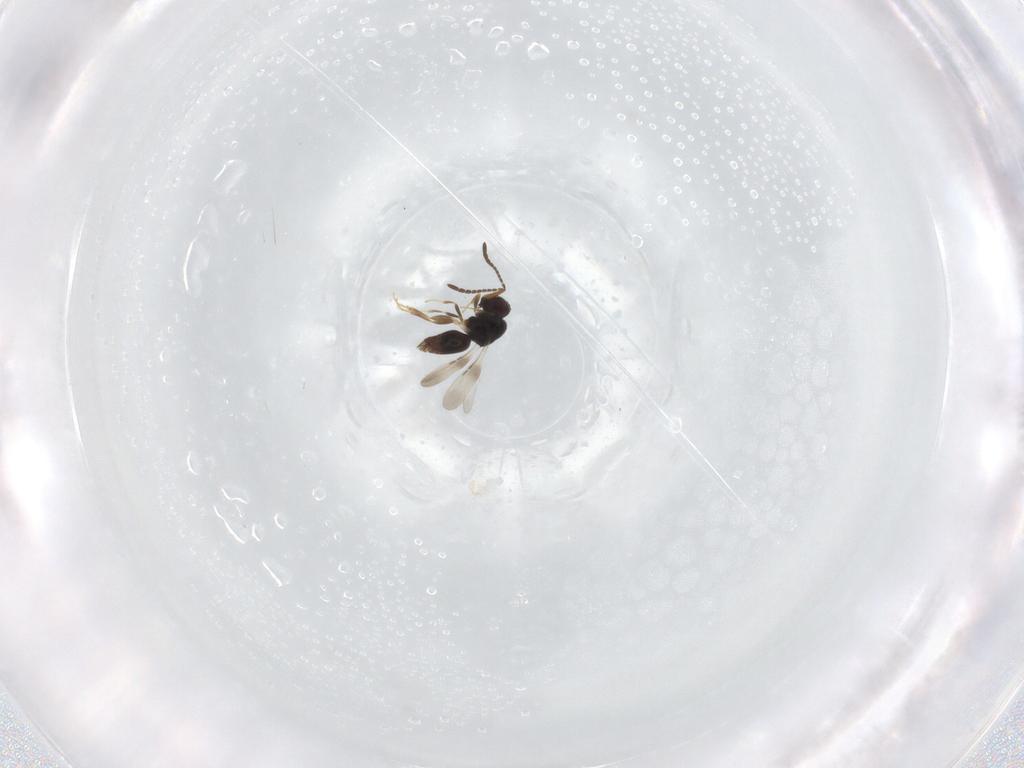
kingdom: Animalia
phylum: Arthropoda
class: Insecta
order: Hymenoptera
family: Encyrtidae
